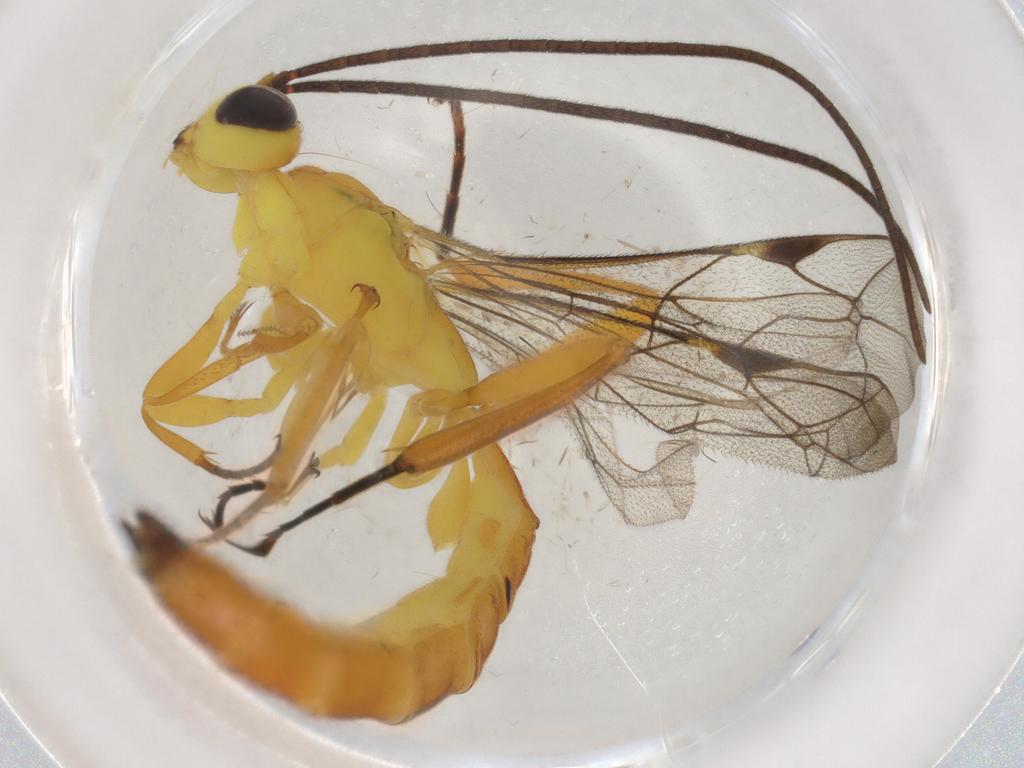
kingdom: Animalia
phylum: Arthropoda
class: Insecta
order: Hymenoptera
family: Ichneumonidae
